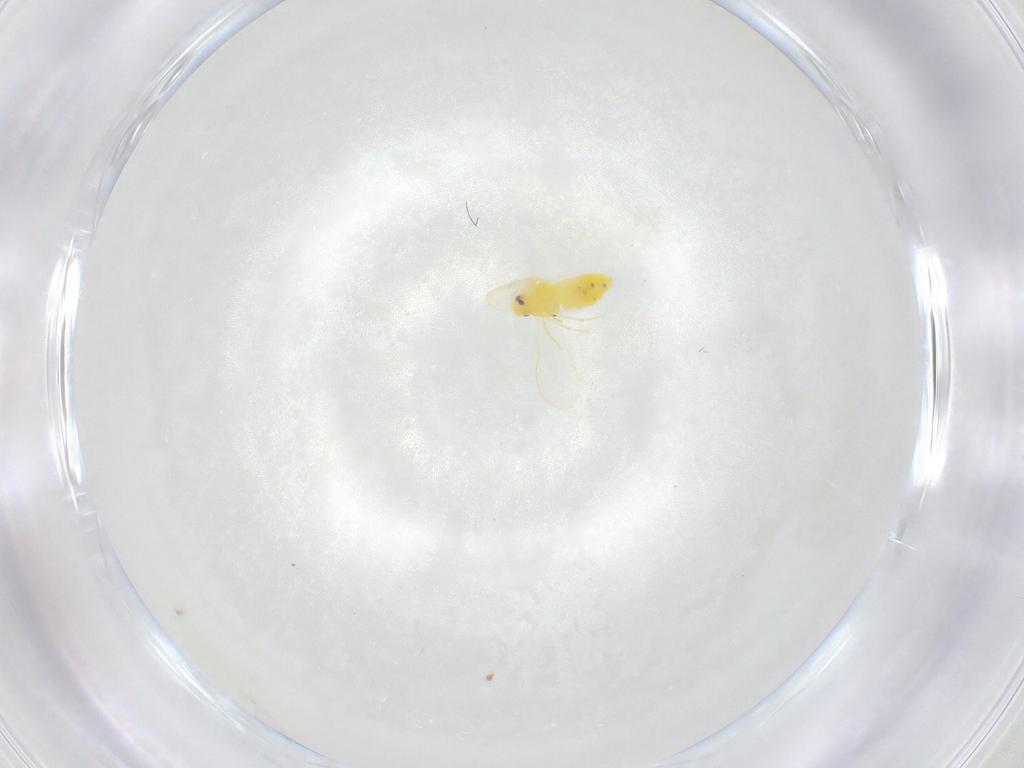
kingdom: Animalia
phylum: Arthropoda
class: Insecta
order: Hemiptera
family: Aleyrodidae
